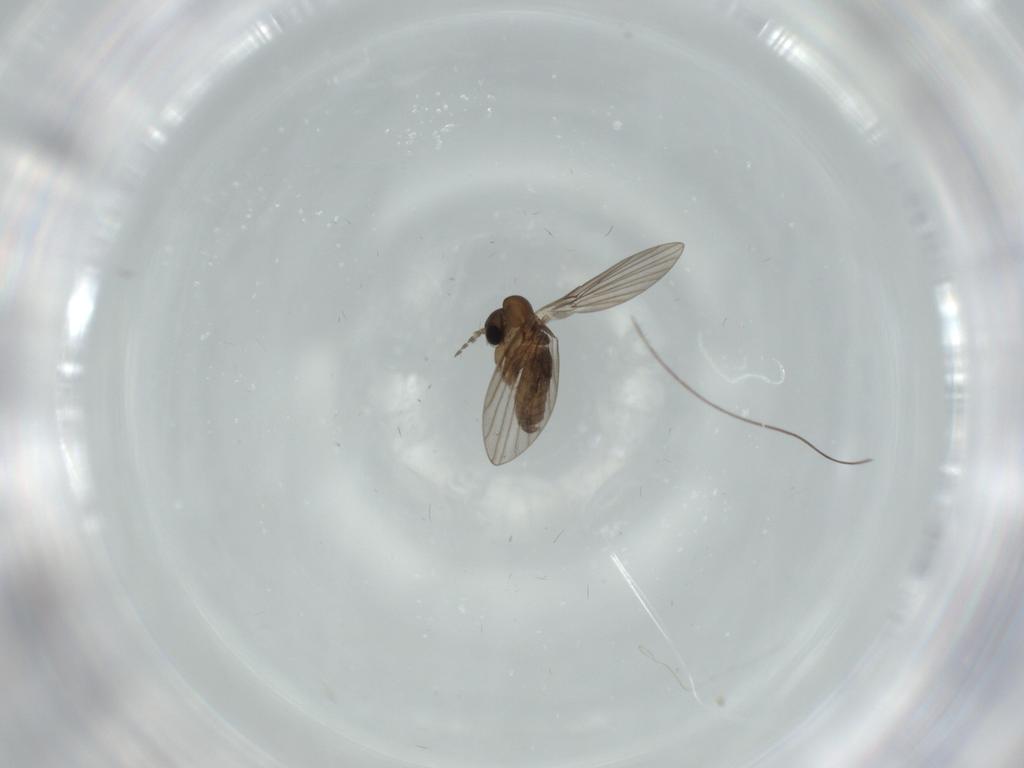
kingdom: Animalia
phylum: Arthropoda
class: Insecta
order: Diptera
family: Psychodidae
